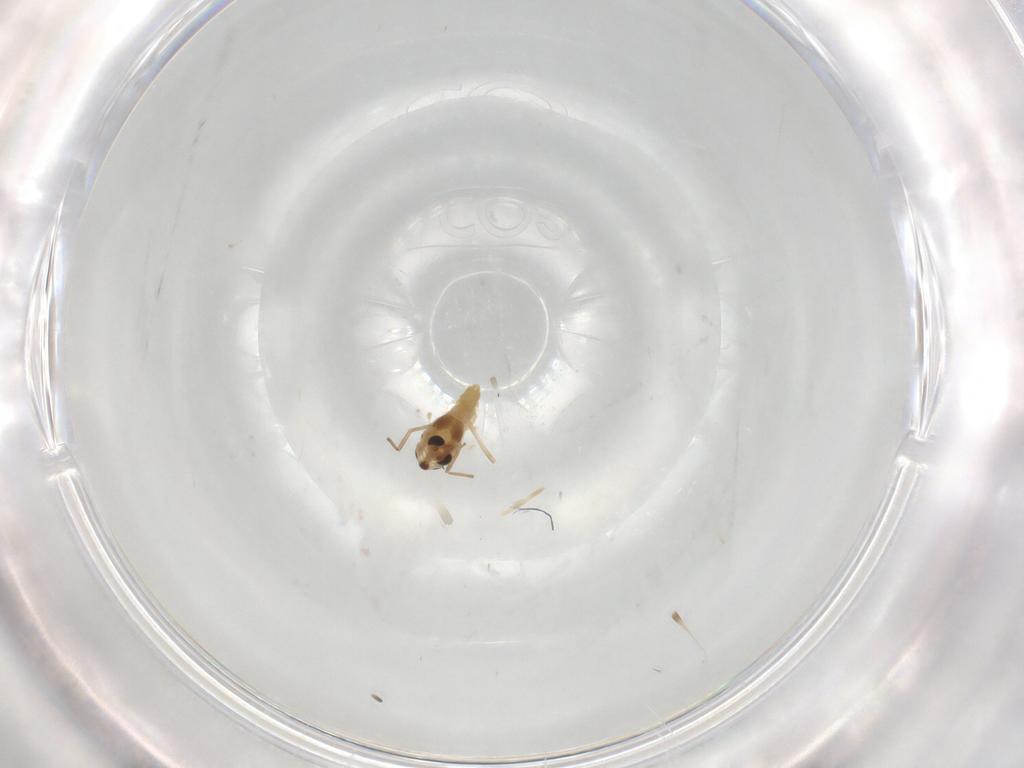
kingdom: Animalia
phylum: Arthropoda
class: Insecta
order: Diptera
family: Chironomidae
